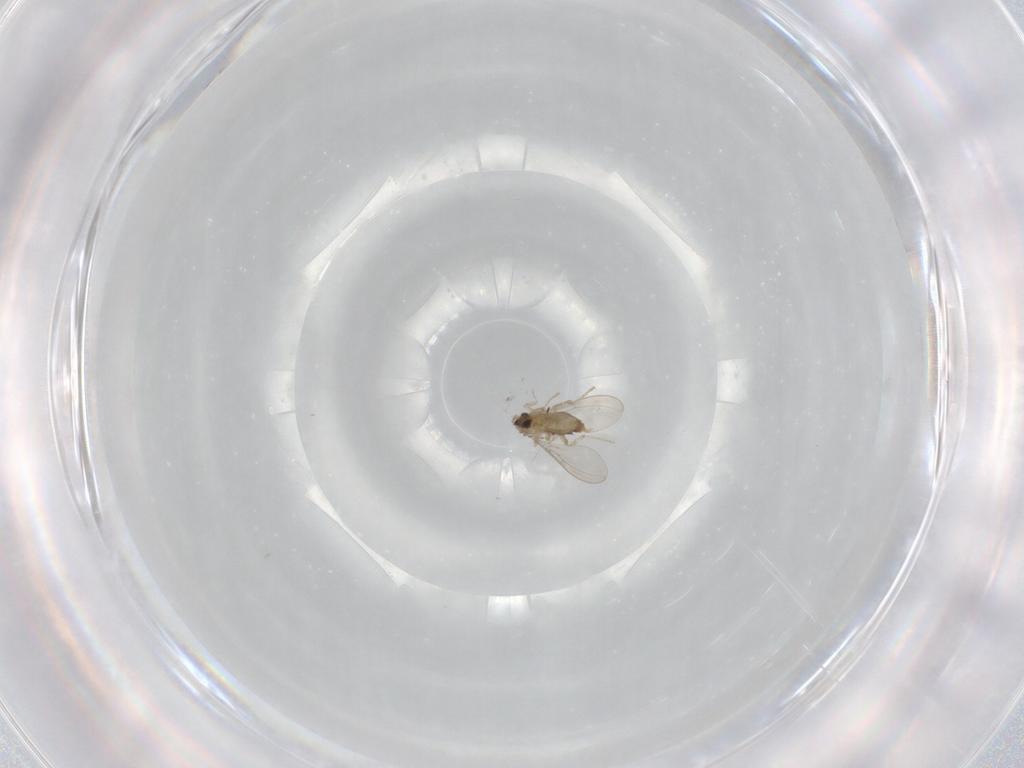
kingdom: Animalia
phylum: Arthropoda
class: Insecta
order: Diptera
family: Cecidomyiidae
